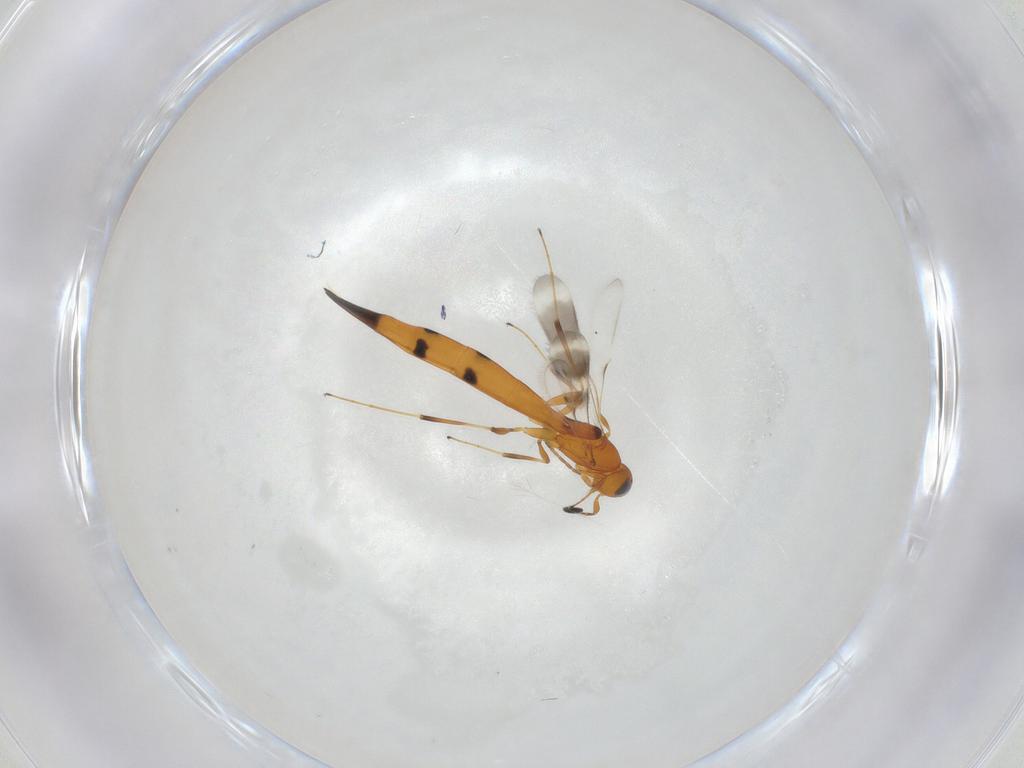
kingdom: Animalia
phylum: Arthropoda
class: Insecta
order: Hymenoptera
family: Scelionidae
